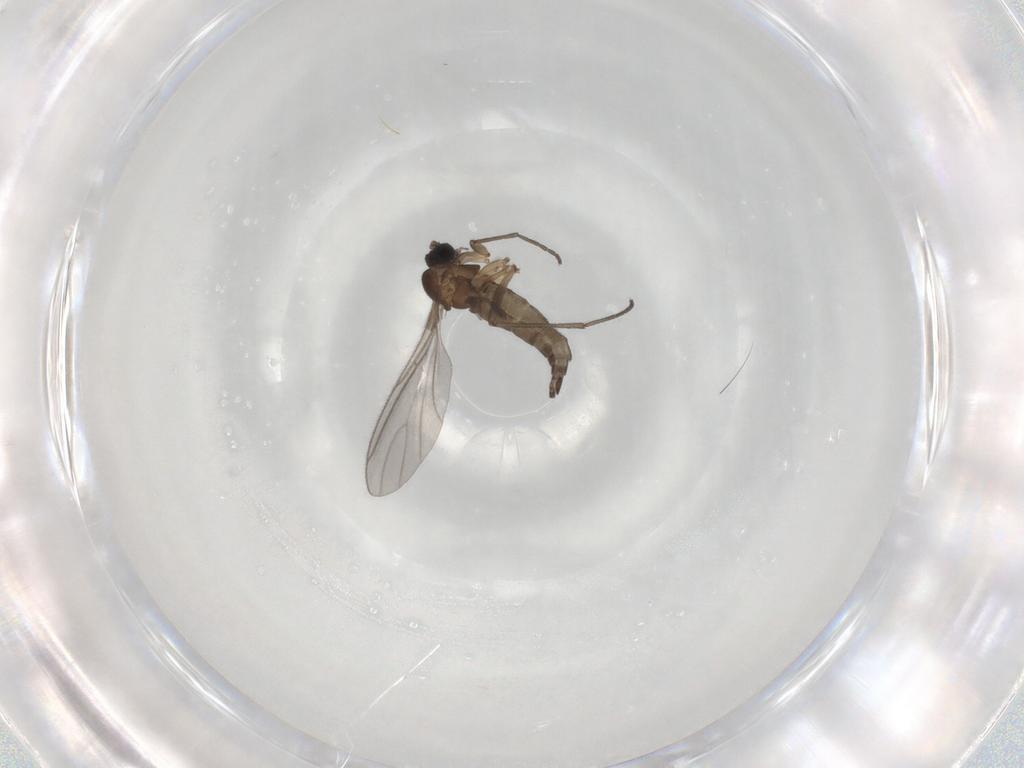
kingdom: Animalia
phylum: Arthropoda
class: Insecta
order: Diptera
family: Sciaridae
